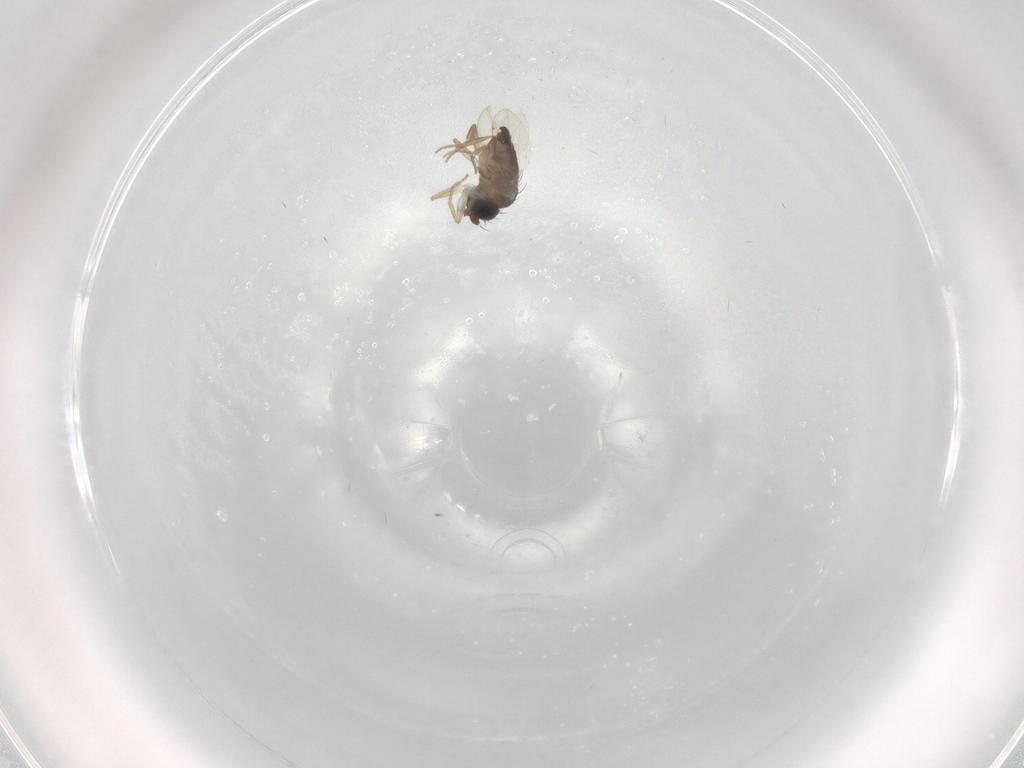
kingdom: Animalia
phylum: Arthropoda
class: Insecta
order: Diptera
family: Phoridae
